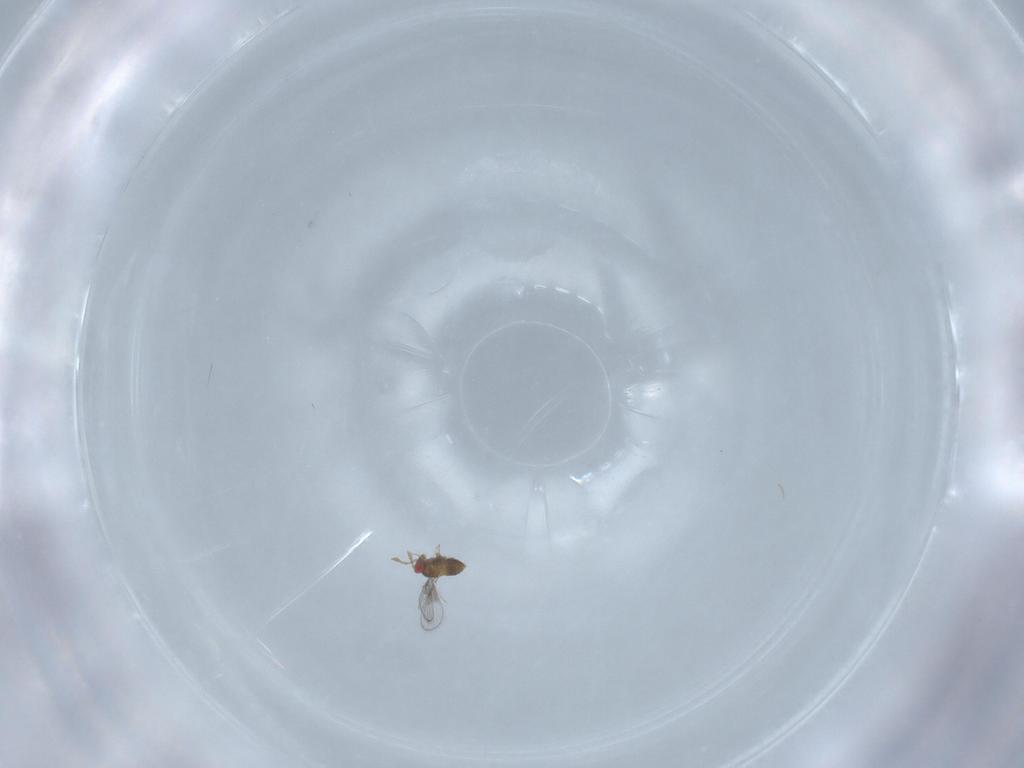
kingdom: Animalia
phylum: Arthropoda
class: Insecta
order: Hymenoptera
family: Trichogrammatidae
